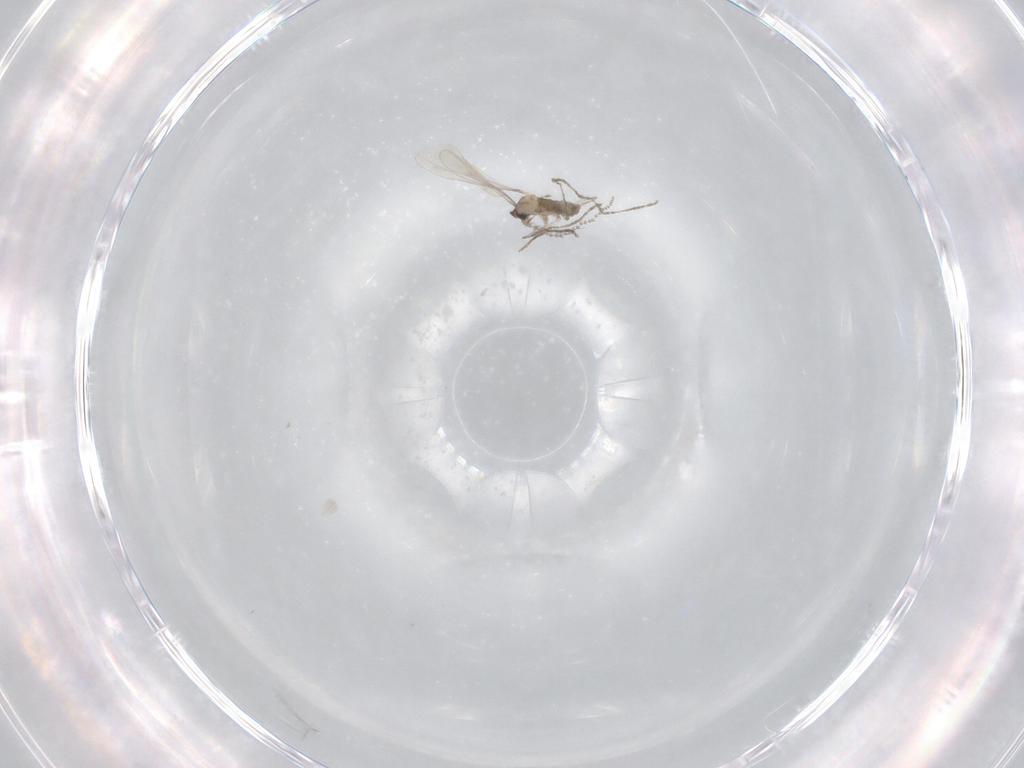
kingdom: Animalia
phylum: Arthropoda
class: Insecta
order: Diptera
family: Cecidomyiidae
